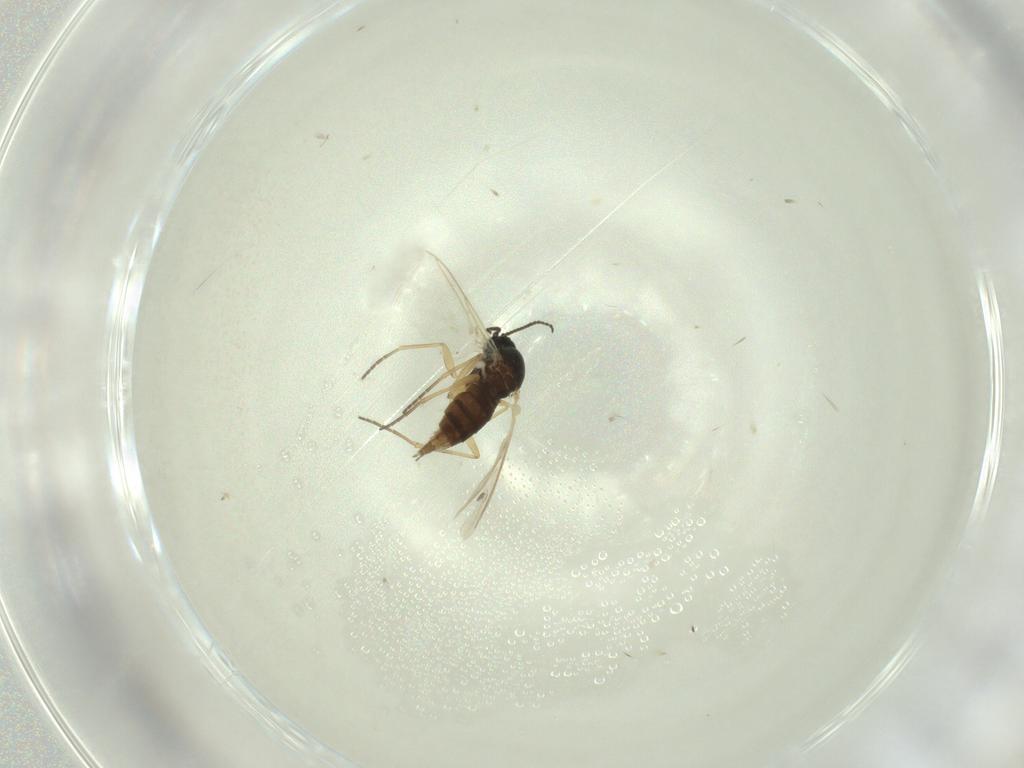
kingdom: Animalia
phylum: Arthropoda
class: Insecta
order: Diptera
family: Sciaridae
